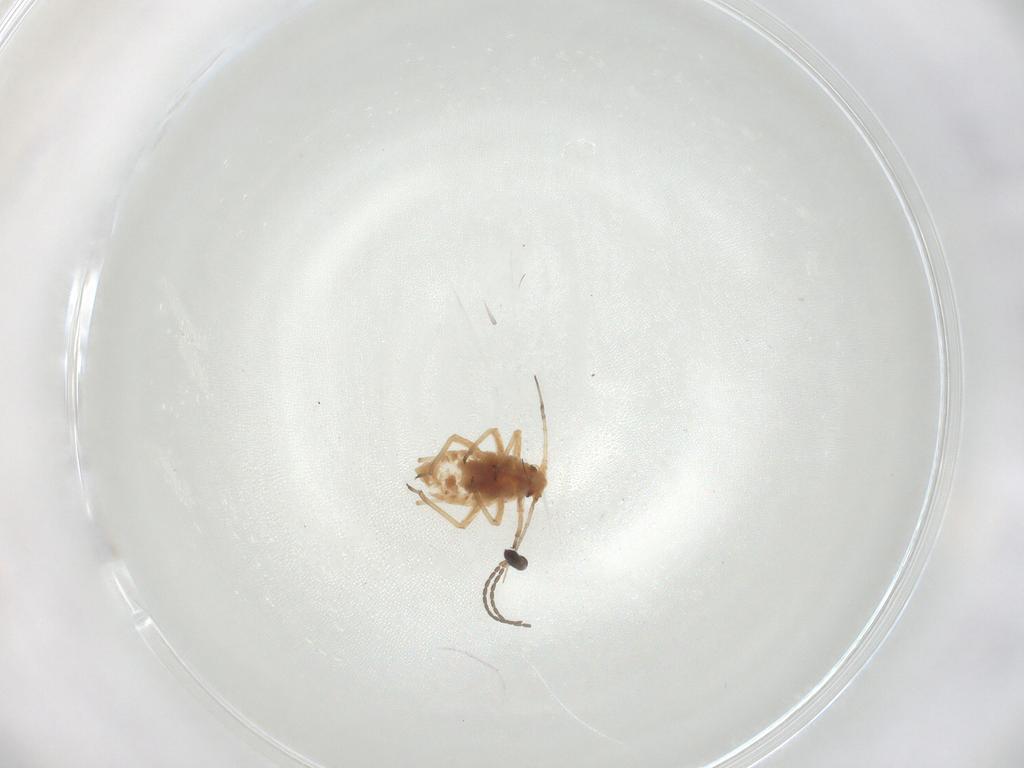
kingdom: Animalia
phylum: Arthropoda
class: Insecta
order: Hemiptera
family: Aphididae
